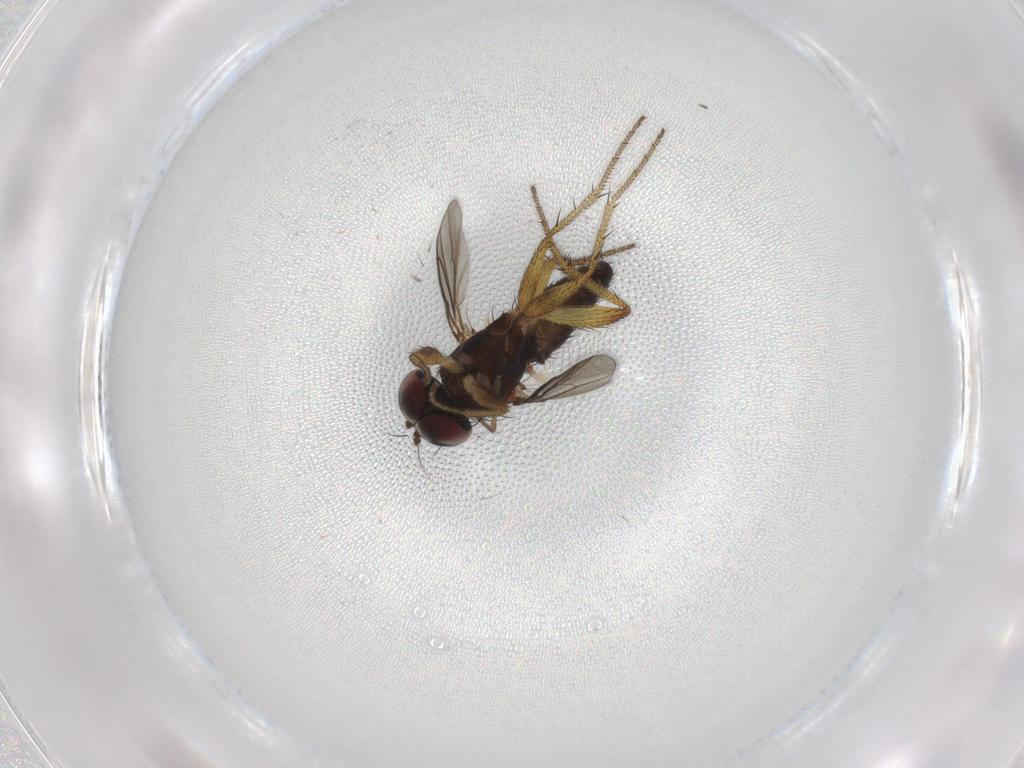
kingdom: Animalia
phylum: Arthropoda
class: Insecta
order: Diptera
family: Dolichopodidae
